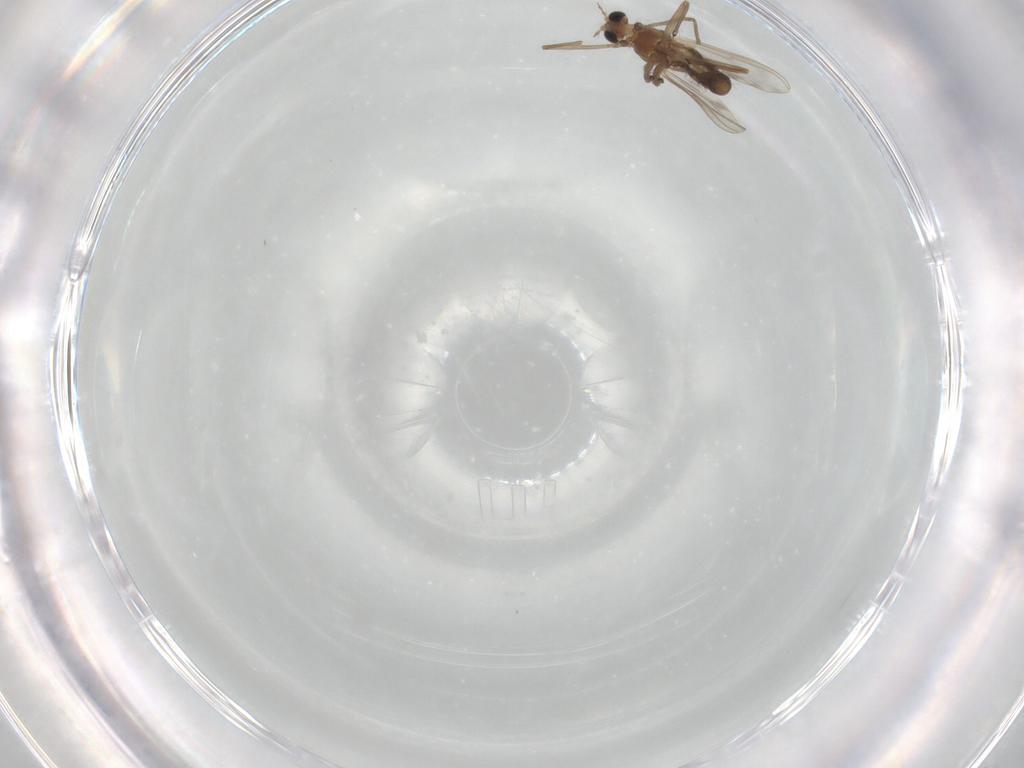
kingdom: Animalia
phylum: Arthropoda
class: Insecta
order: Diptera
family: Chironomidae
